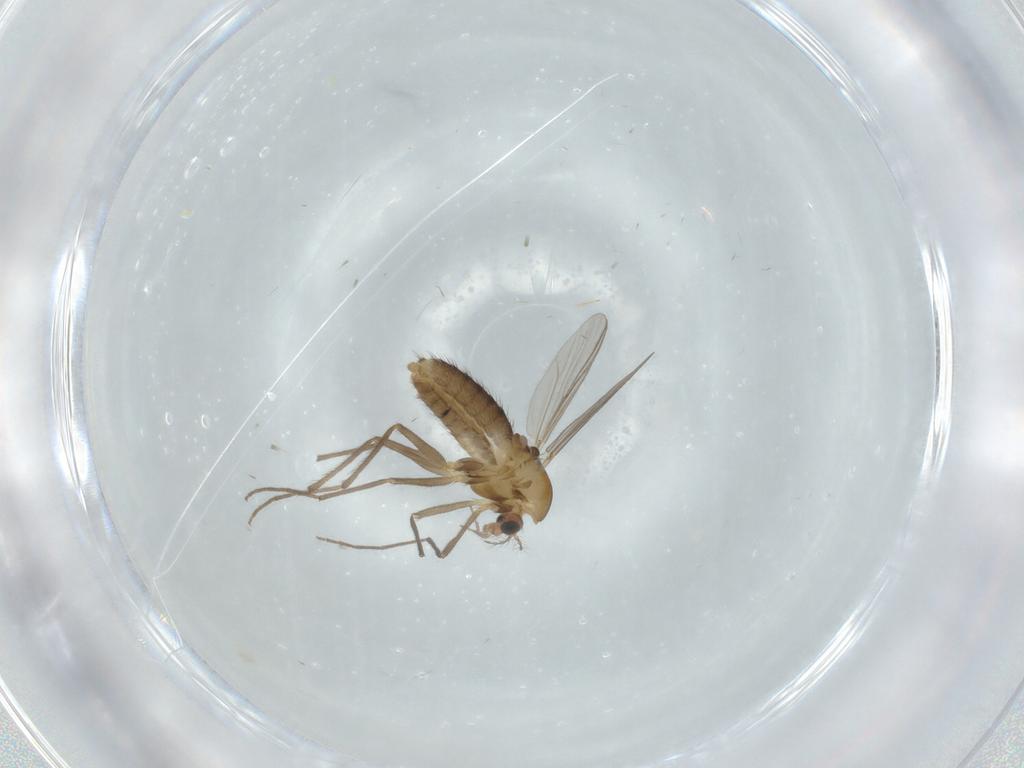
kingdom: Animalia
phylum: Arthropoda
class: Insecta
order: Diptera
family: Chironomidae
